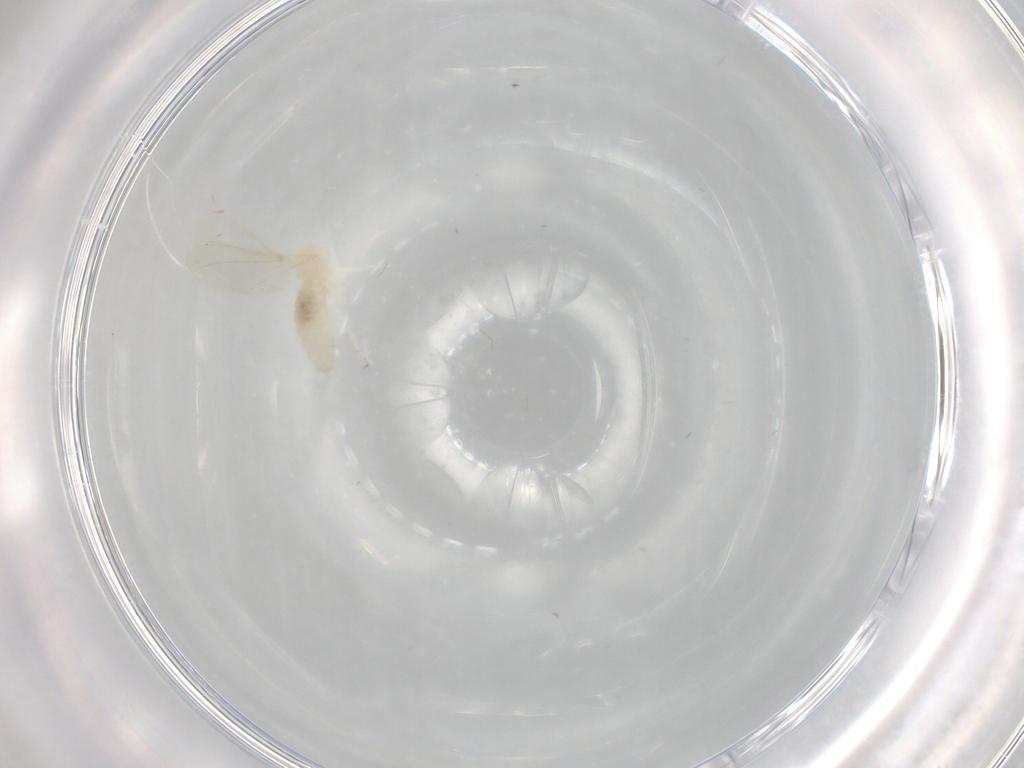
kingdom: Animalia
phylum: Arthropoda
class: Insecta
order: Diptera
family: Cecidomyiidae
